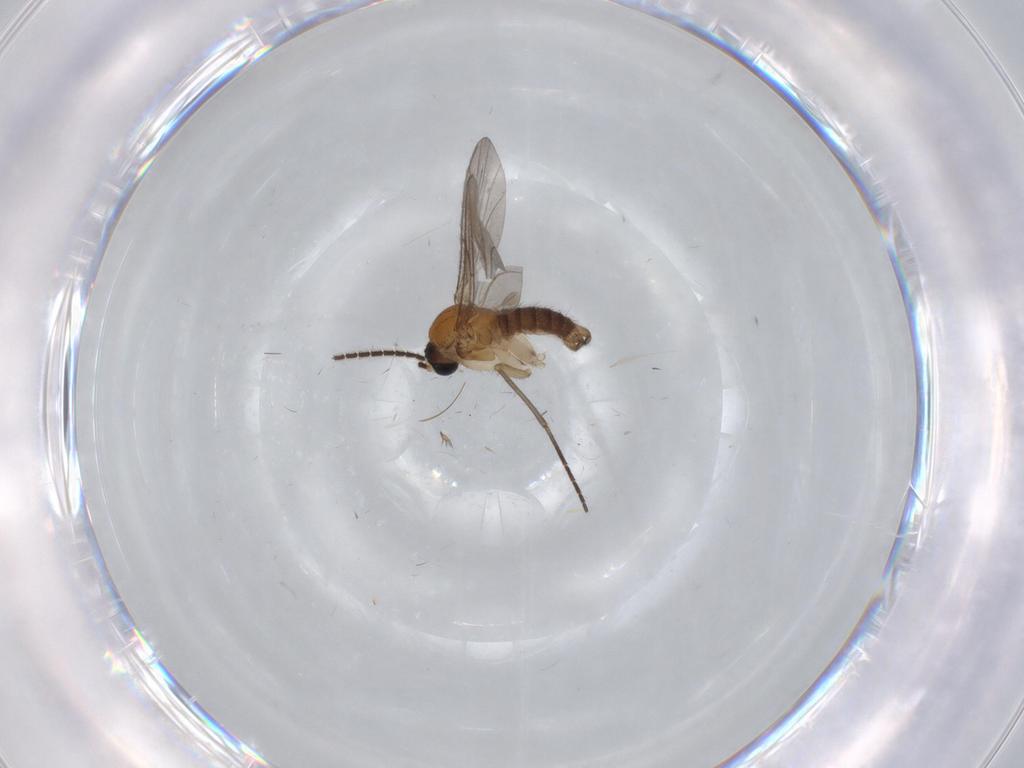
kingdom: Animalia
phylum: Arthropoda
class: Insecta
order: Diptera
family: Sciaridae
